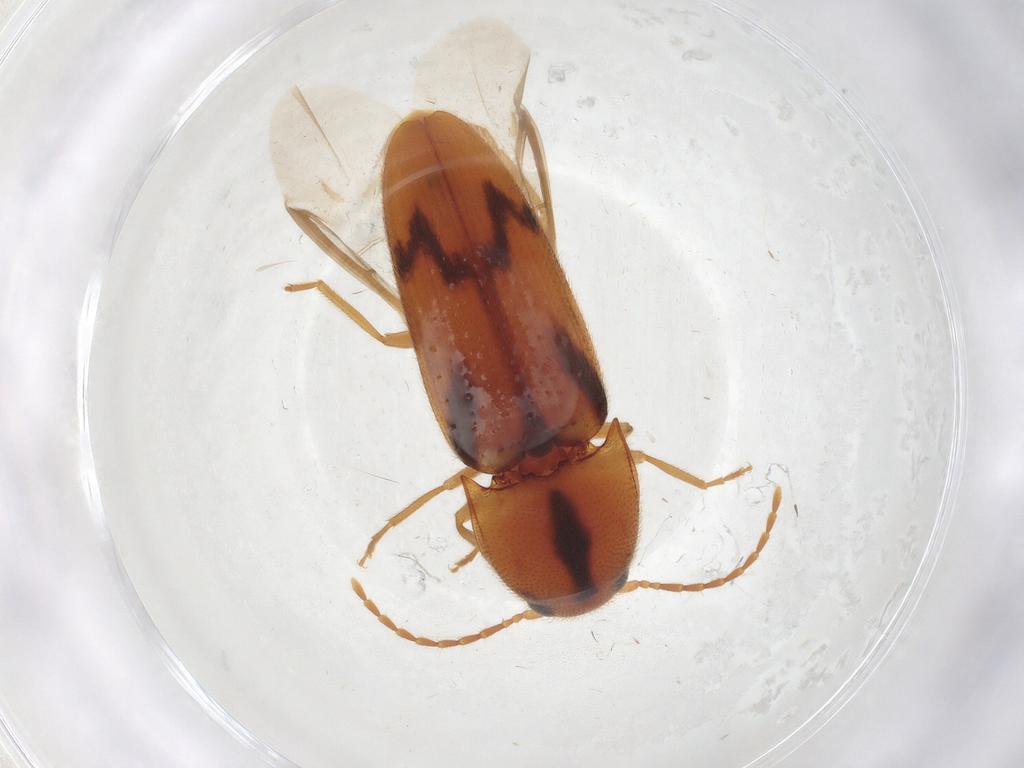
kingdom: Animalia
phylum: Arthropoda
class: Insecta
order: Coleoptera
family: Elateridae
